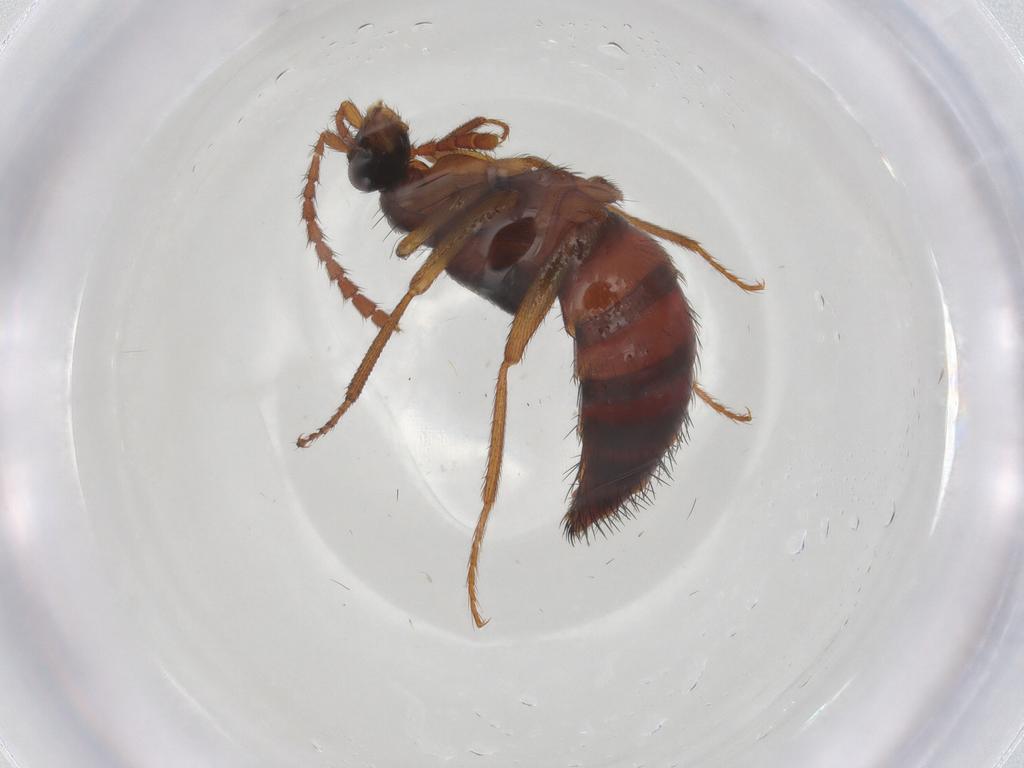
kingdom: Animalia
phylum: Arthropoda
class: Insecta
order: Coleoptera
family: Staphylinidae
